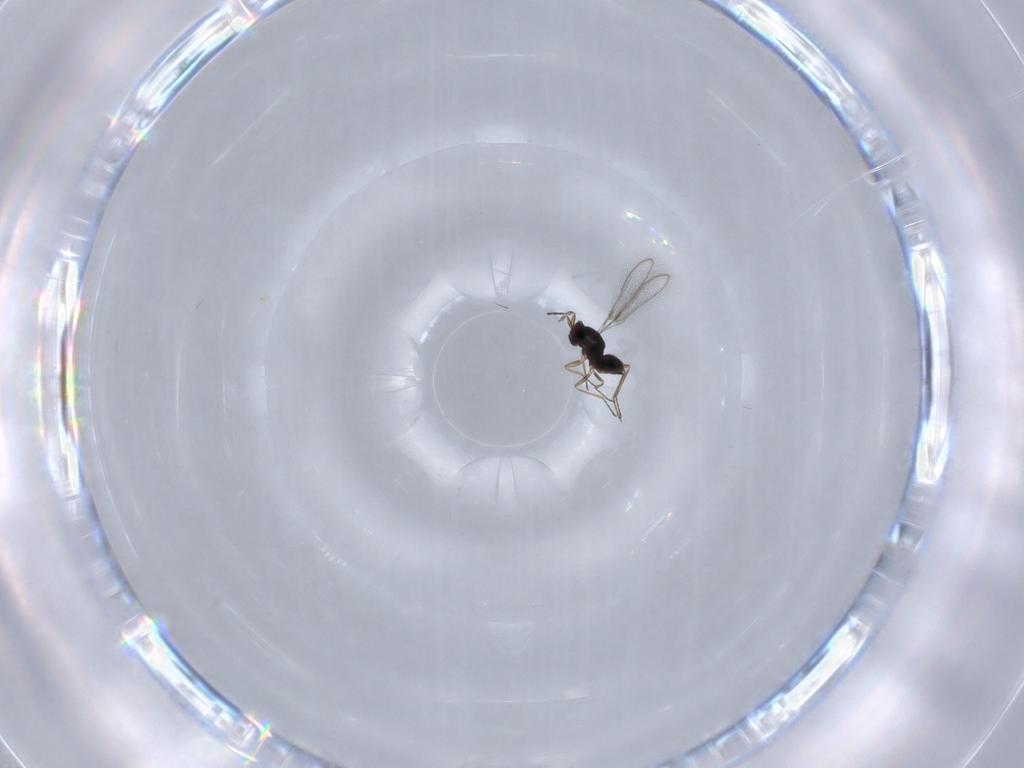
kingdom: Animalia
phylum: Arthropoda
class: Insecta
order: Hymenoptera
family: Mymaridae
